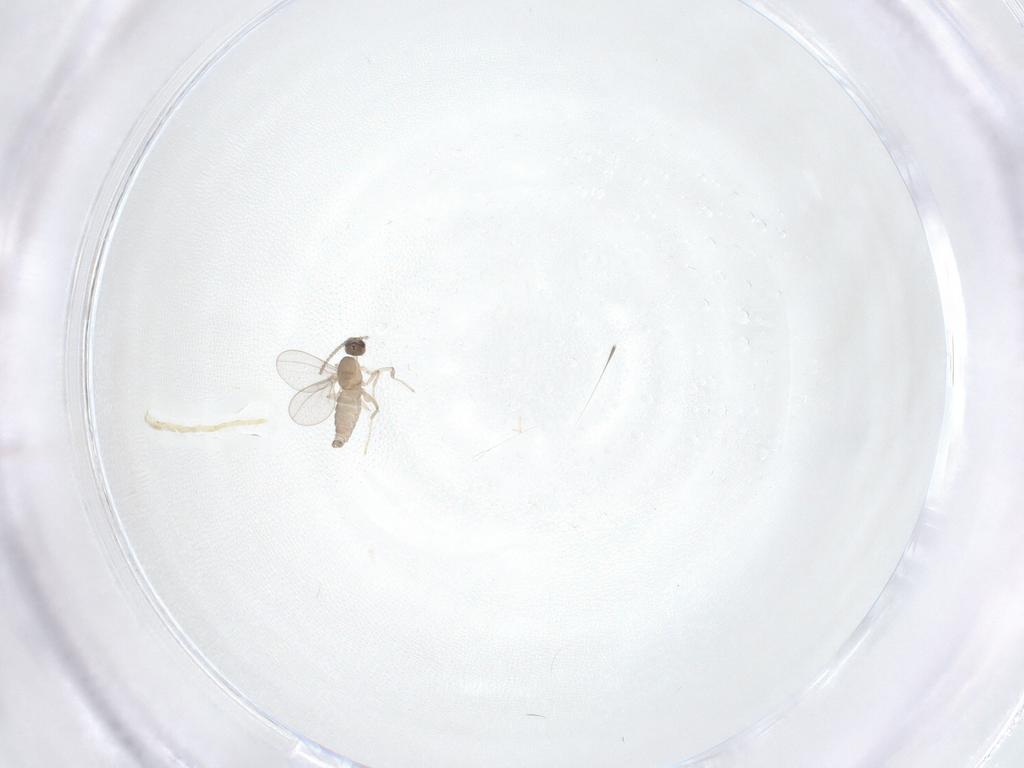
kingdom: Animalia
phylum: Arthropoda
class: Insecta
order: Diptera
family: Cecidomyiidae
